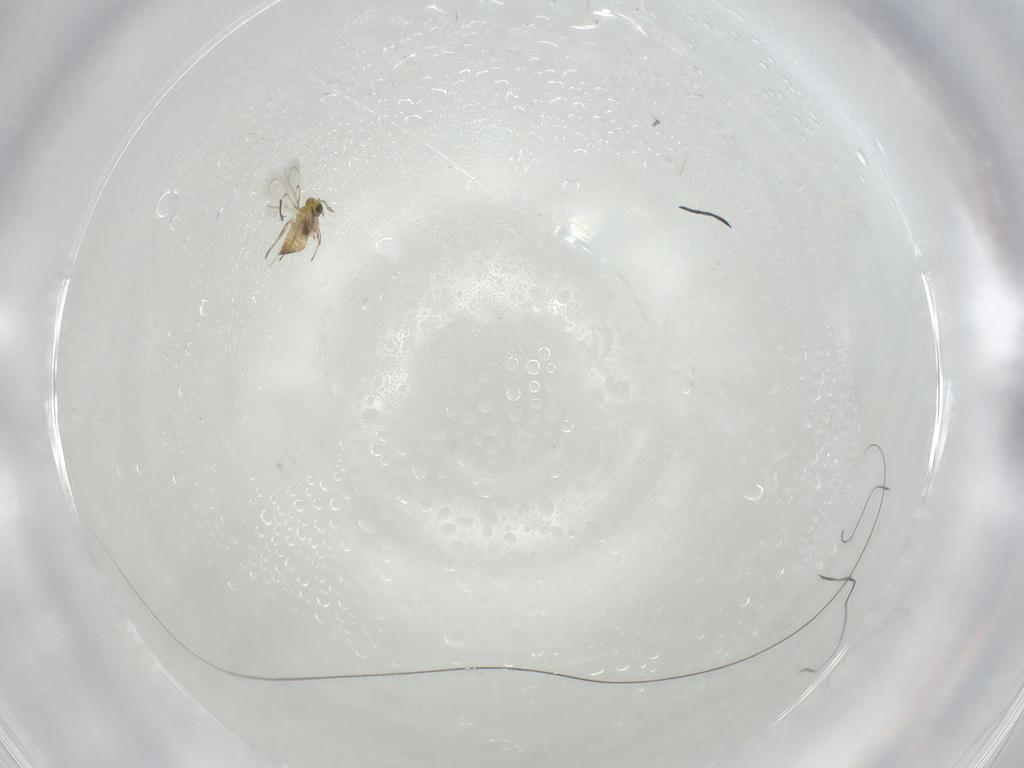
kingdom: Animalia
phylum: Arthropoda
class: Insecta
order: Hymenoptera
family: Trichogrammatidae
